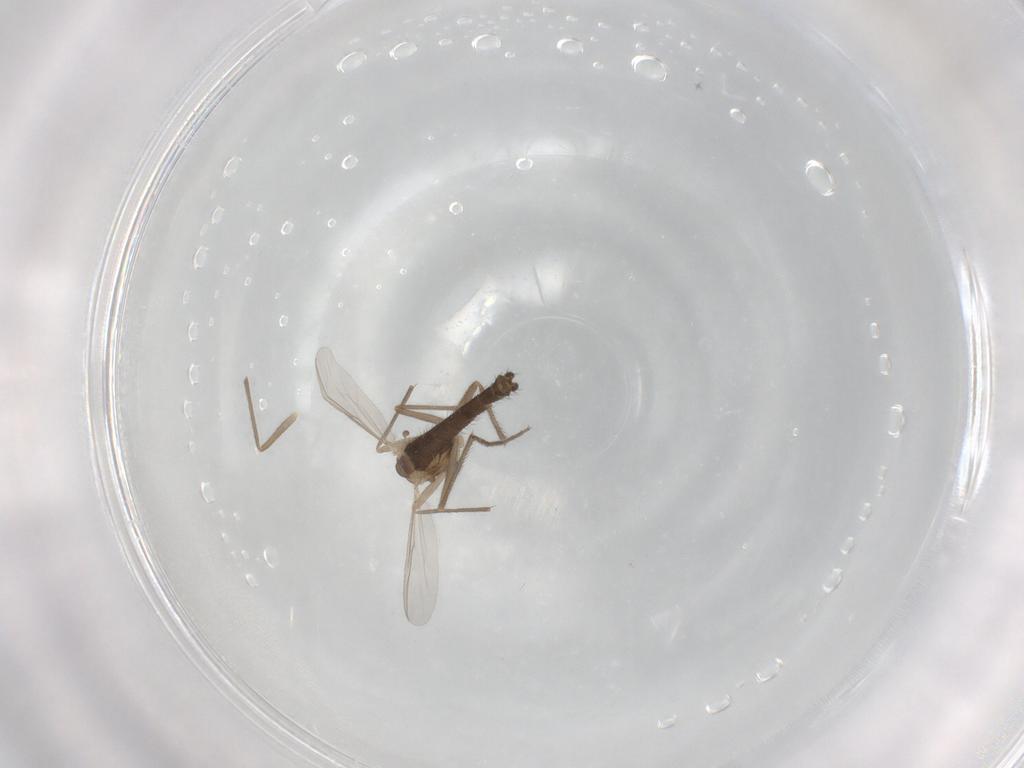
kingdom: Animalia
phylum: Arthropoda
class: Insecta
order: Diptera
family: Chironomidae
